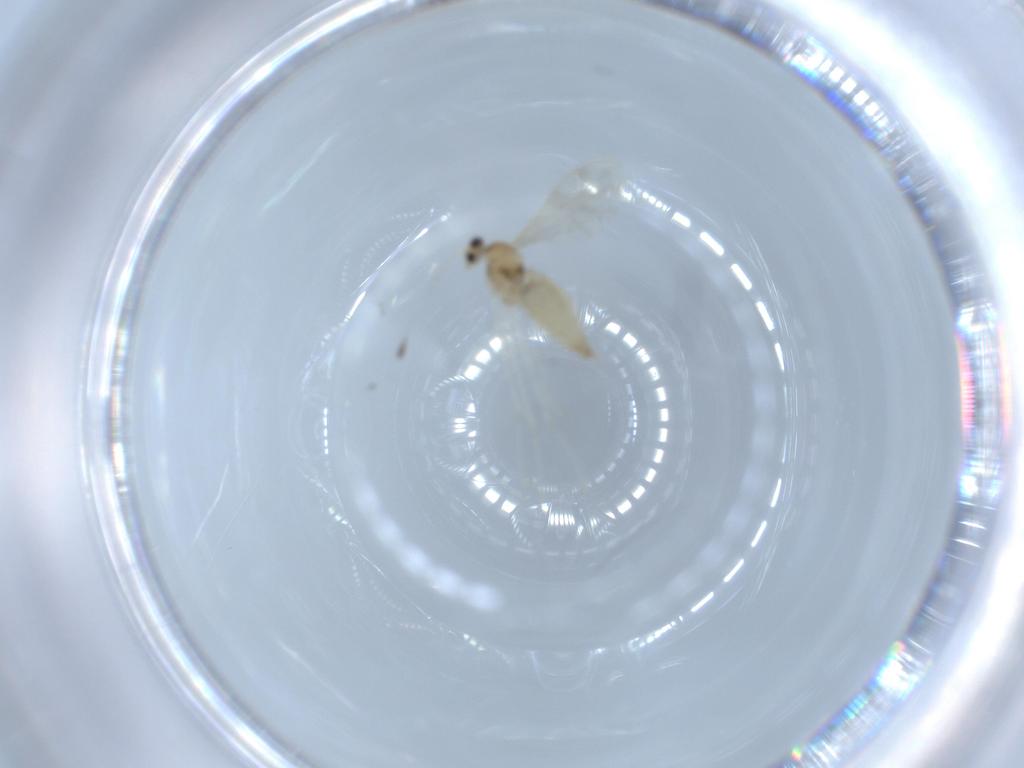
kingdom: Animalia
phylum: Arthropoda
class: Insecta
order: Diptera
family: Cecidomyiidae
